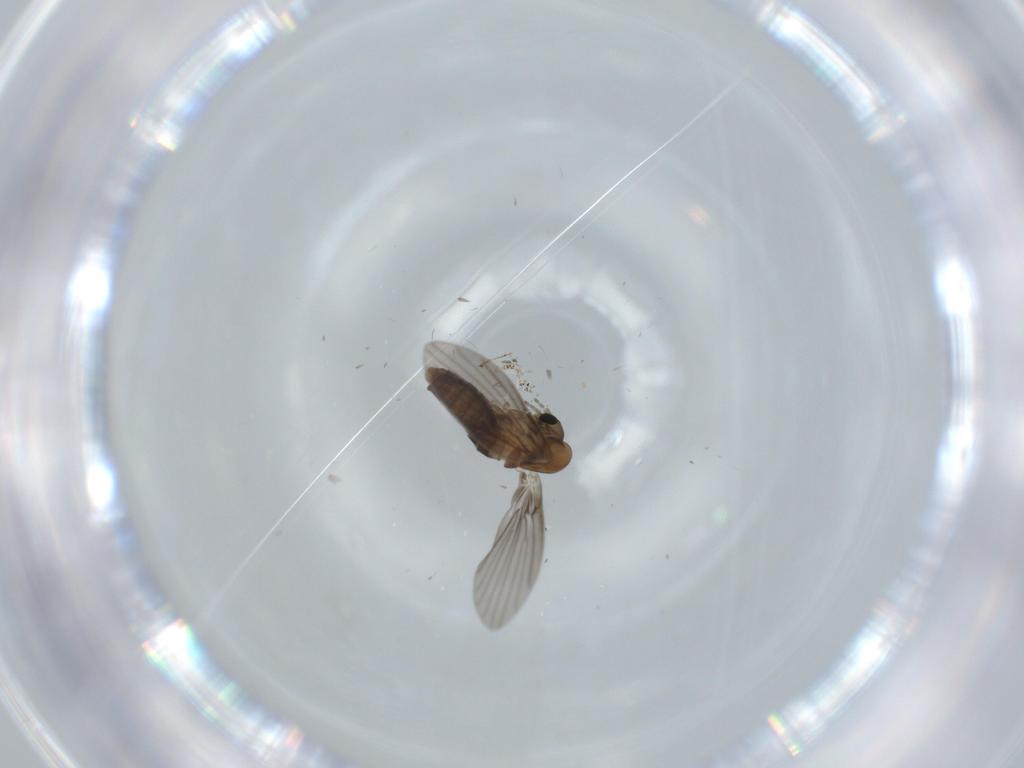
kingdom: Animalia
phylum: Arthropoda
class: Insecta
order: Diptera
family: Psychodidae
